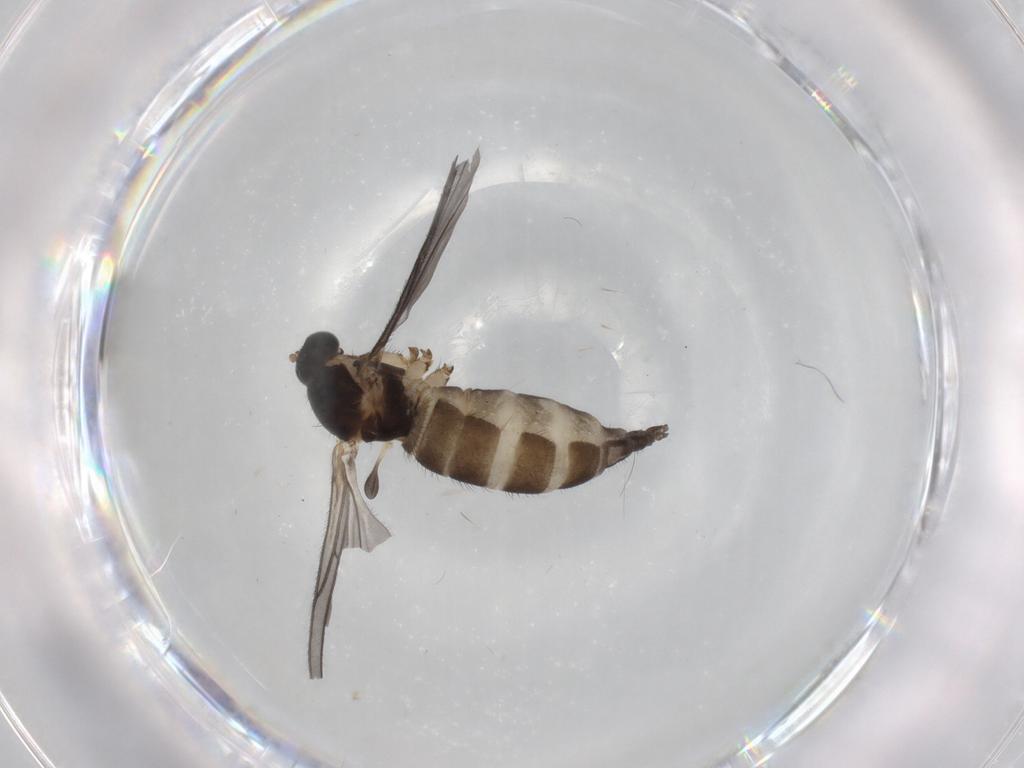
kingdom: Animalia
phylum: Arthropoda
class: Insecta
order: Diptera
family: Sciaridae
